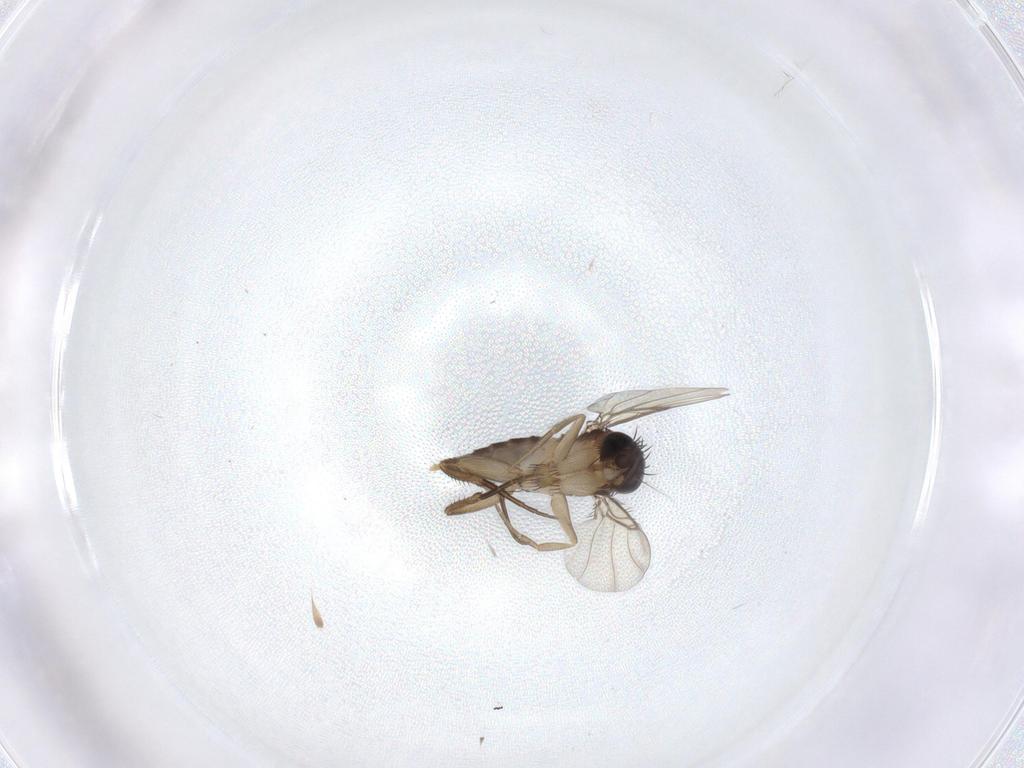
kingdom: Animalia
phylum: Arthropoda
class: Insecta
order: Diptera
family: Phoridae
